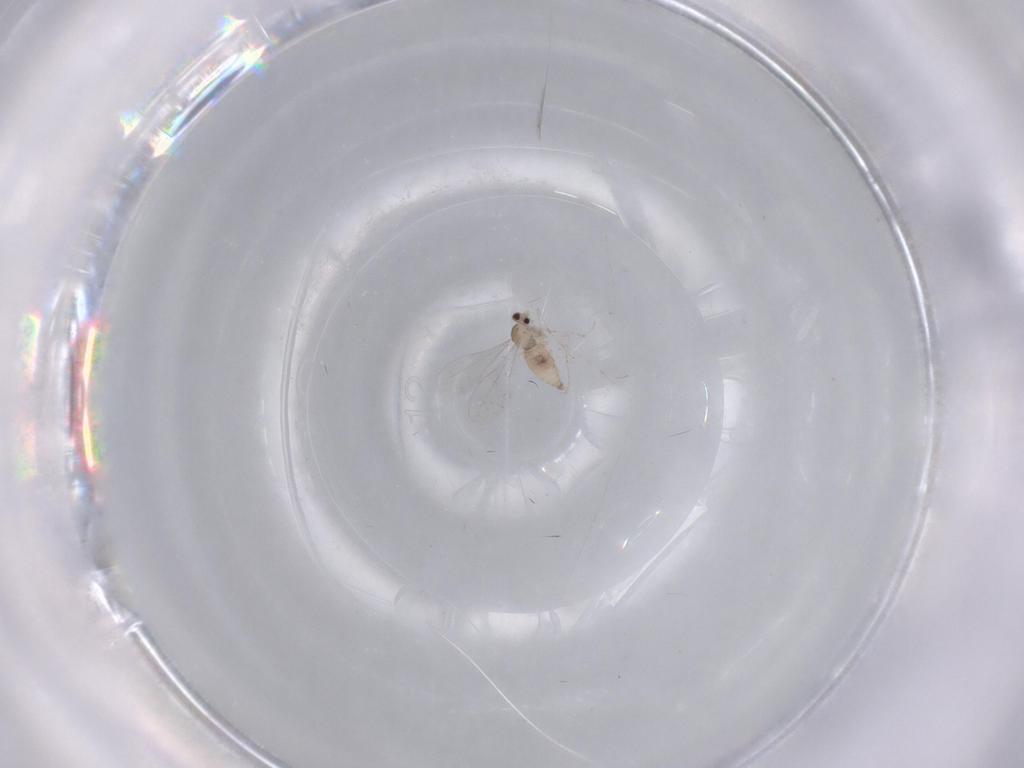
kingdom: Animalia
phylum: Arthropoda
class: Insecta
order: Diptera
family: Cecidomyiidae
